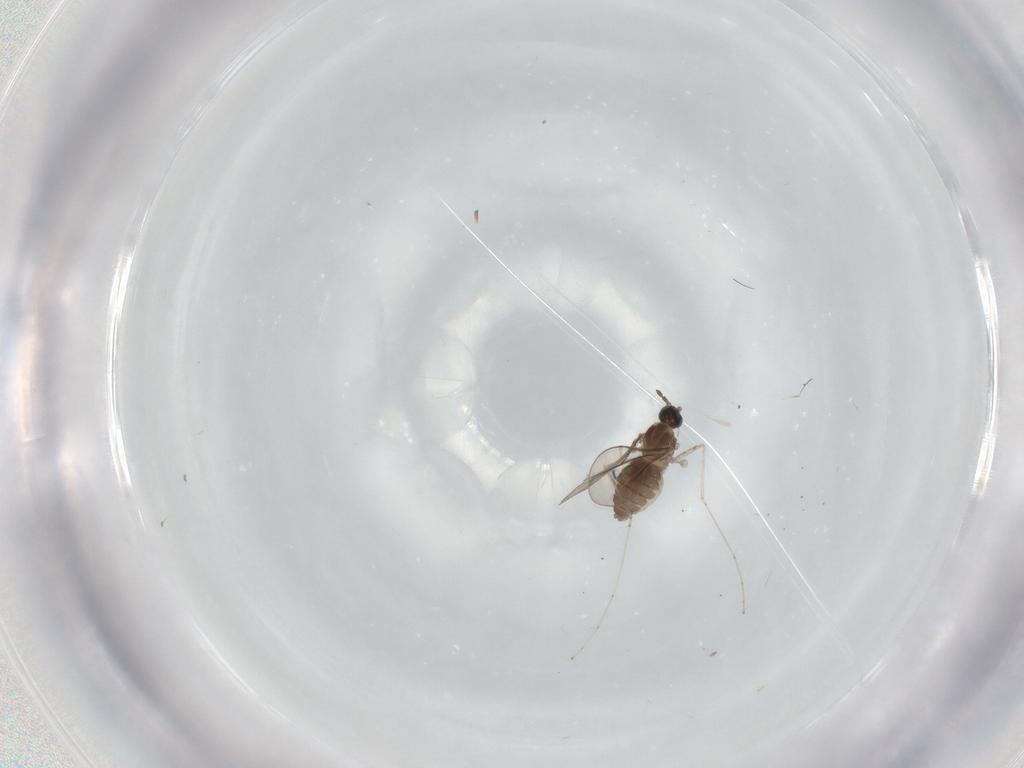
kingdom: Animalia
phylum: Arthropoda
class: Insecta
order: Diptera
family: Cecidomyiidae
